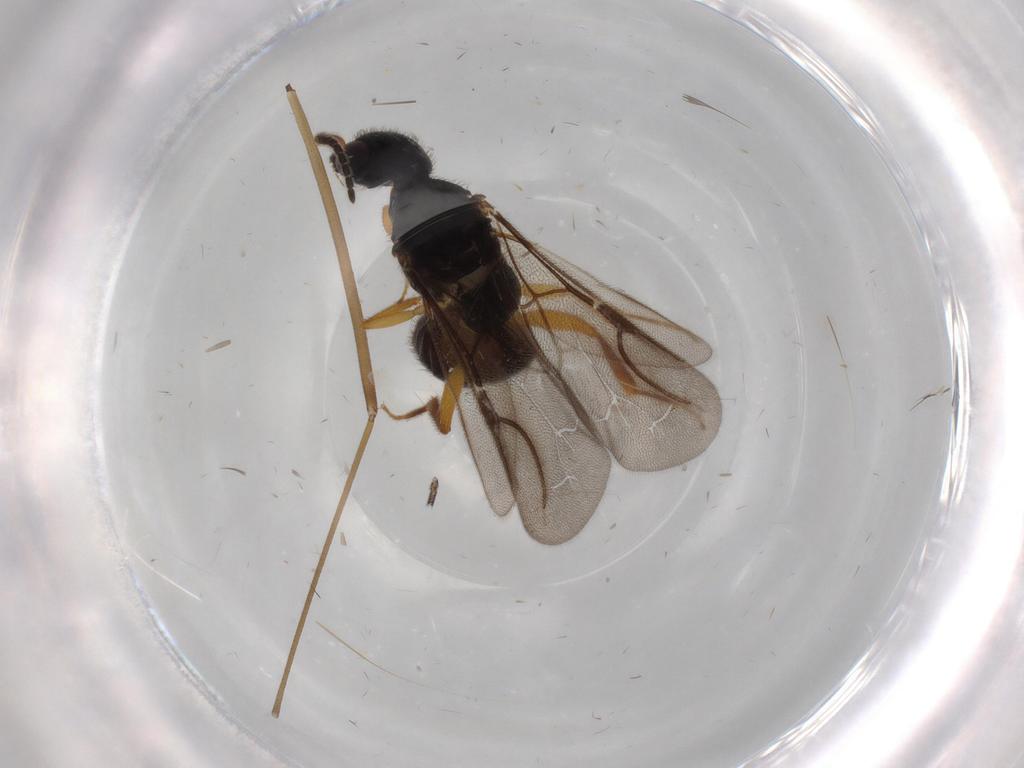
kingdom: Animalia
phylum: Arthropoda
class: Insecta
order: Hymenoptera
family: Bethylidae
